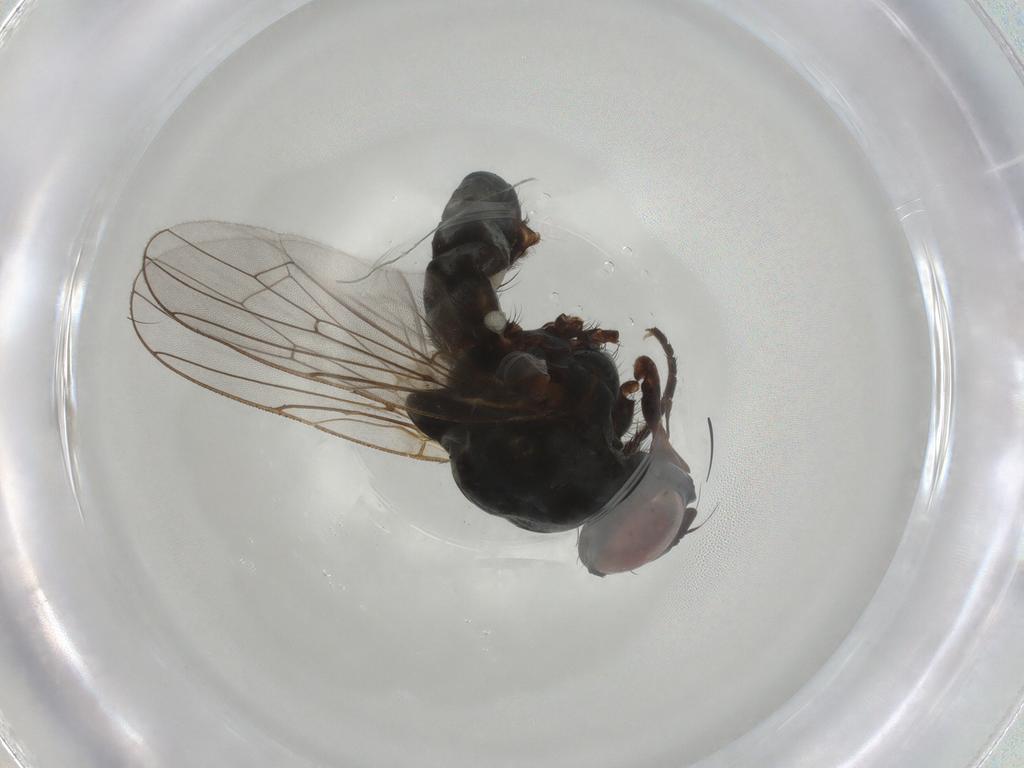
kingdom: Animalia
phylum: Arthropoda
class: Insecta
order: Diptera
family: Anthomyiidae
